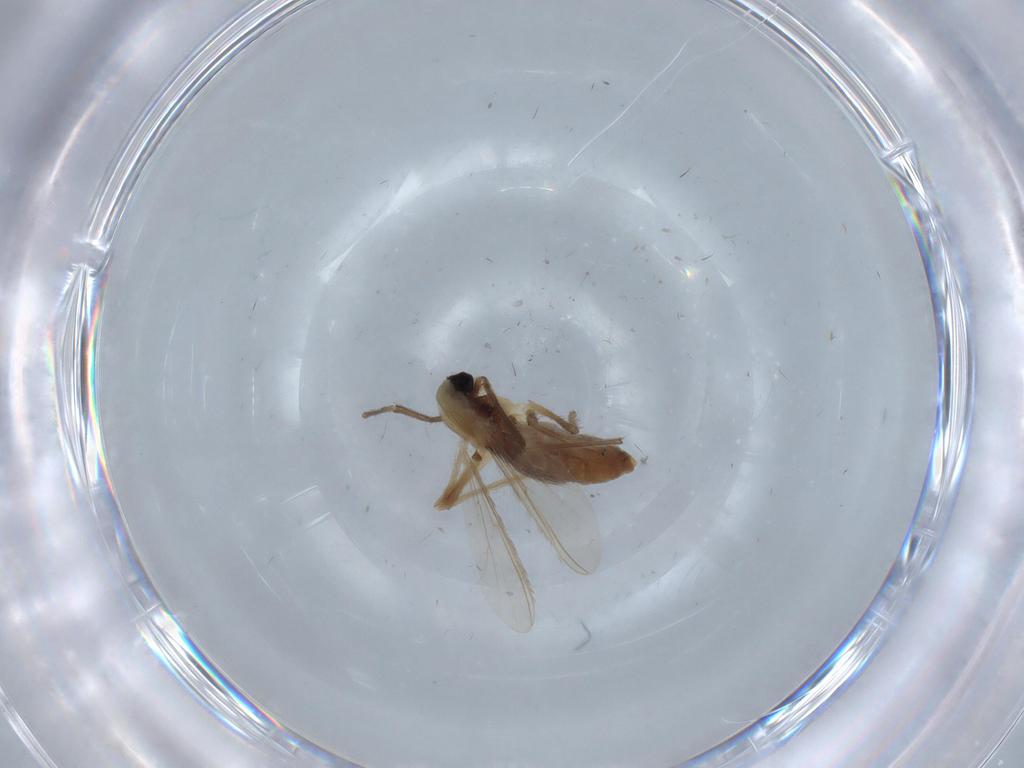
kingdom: Animalia
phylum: Arthropoda
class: Insecta
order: Diptera
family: Chironomidae
